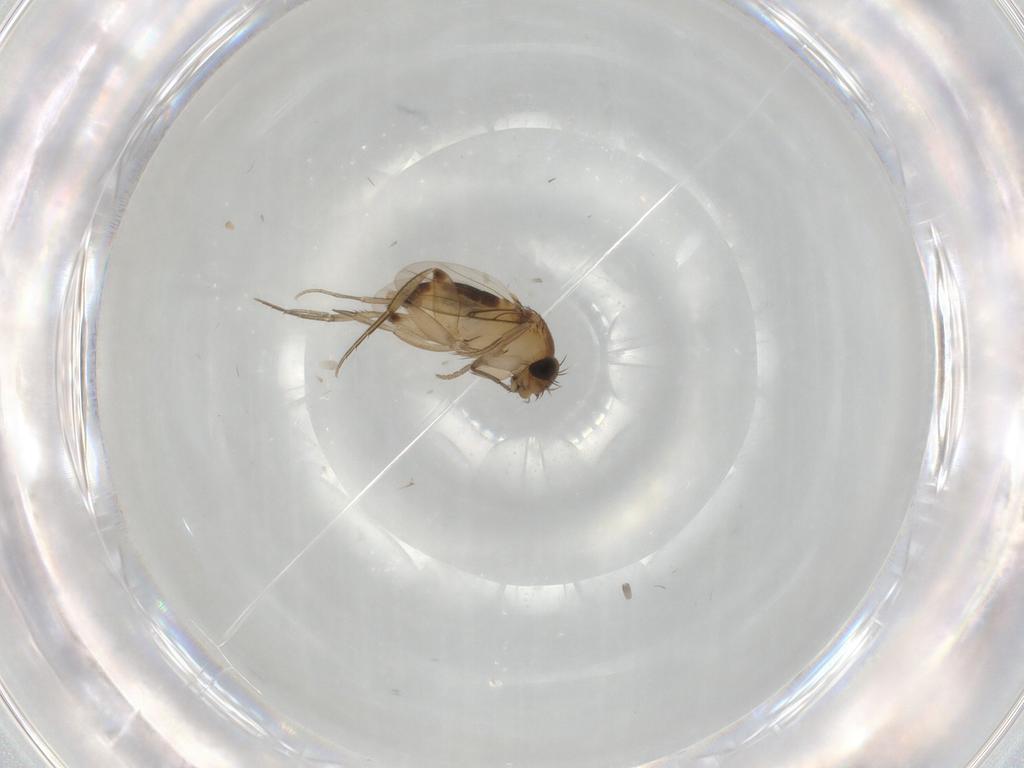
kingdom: Animalia
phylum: Arthropoda
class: Insecta
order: Diptera
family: Phoridae
